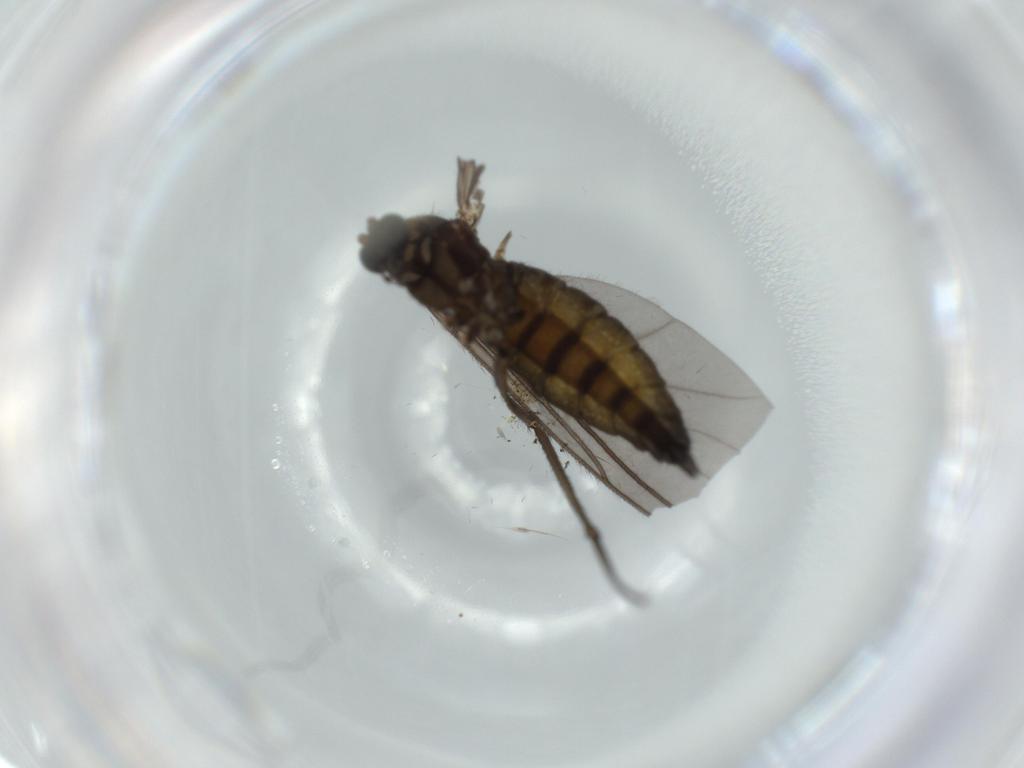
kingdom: Animalia
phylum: Arthropoda
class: Insecta
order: Diptera
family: Sciaridae
